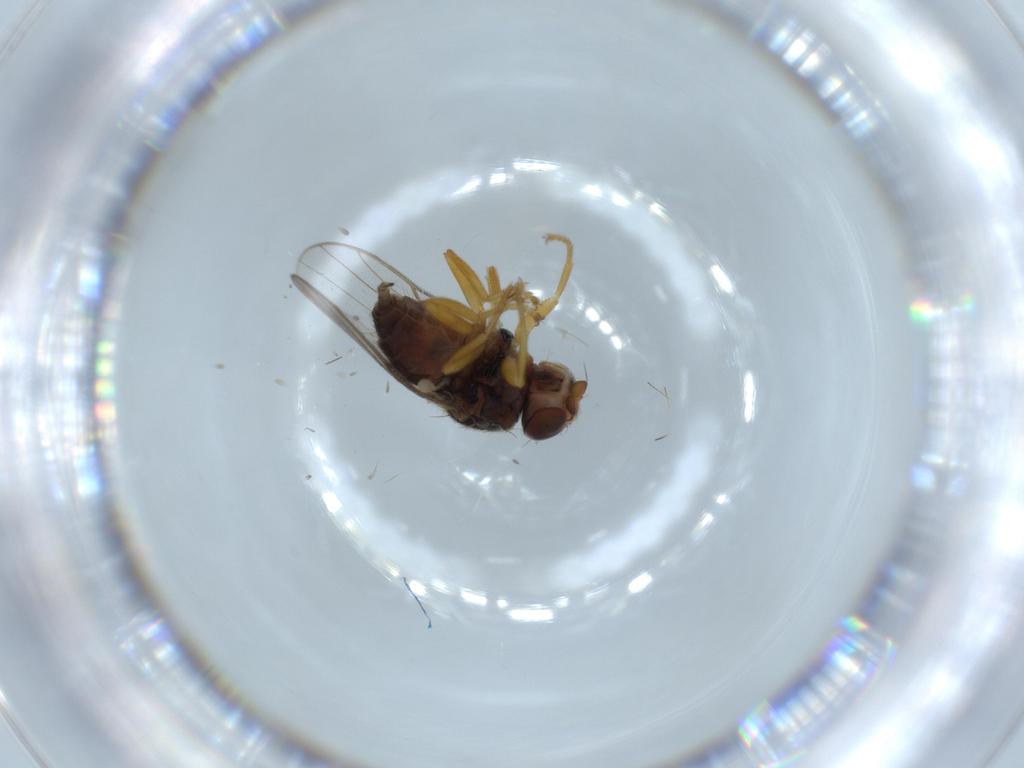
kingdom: Animalia
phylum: Arthropoda
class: Insecta
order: Diptera
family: Chloropidae
